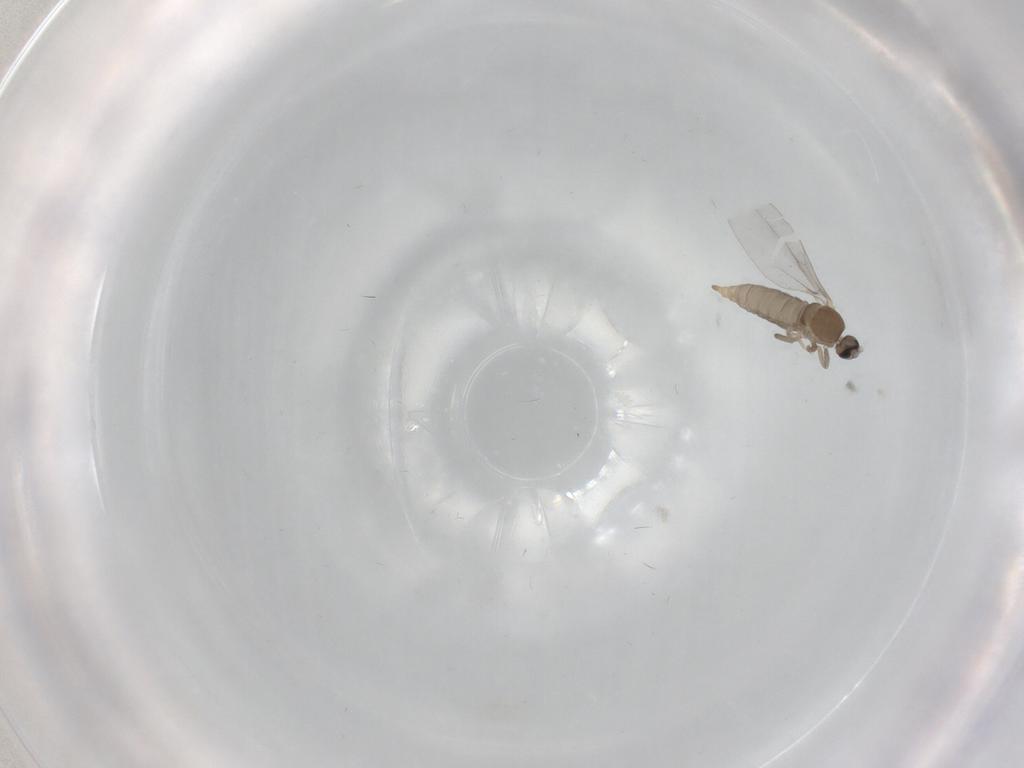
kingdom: Animalia
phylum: Arthropoda
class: Insecta
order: Diptera
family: Cecidomyiidae
